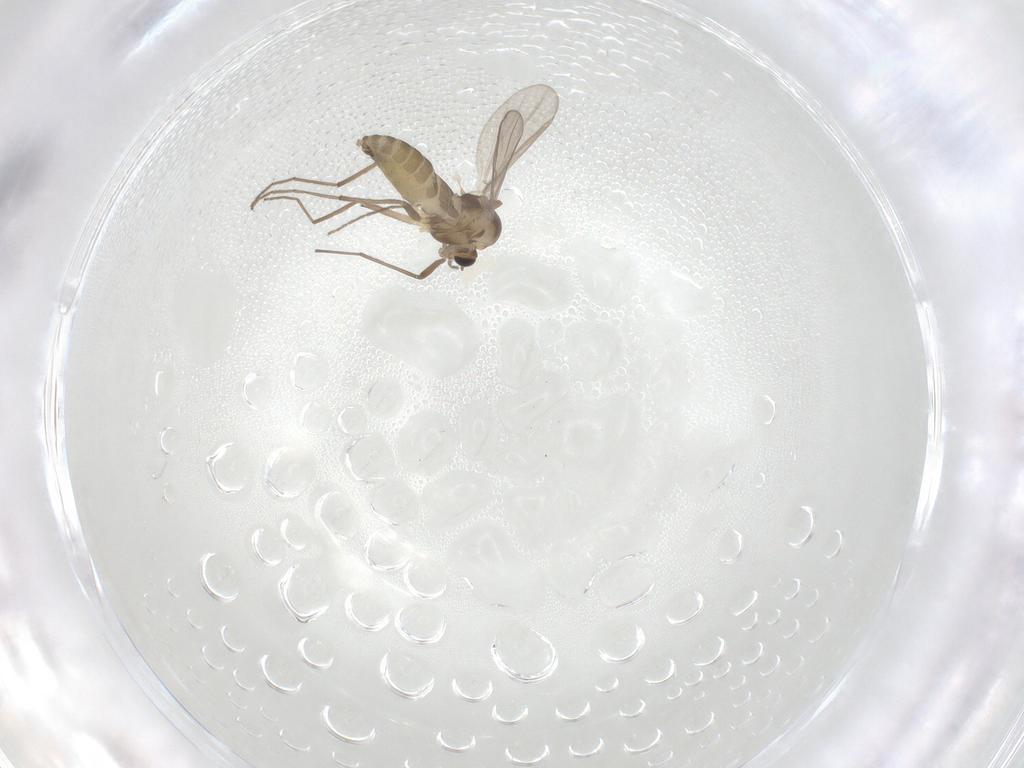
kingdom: Animalia
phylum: Arthropoda
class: Insecta
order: Diptera
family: Chironomidae
